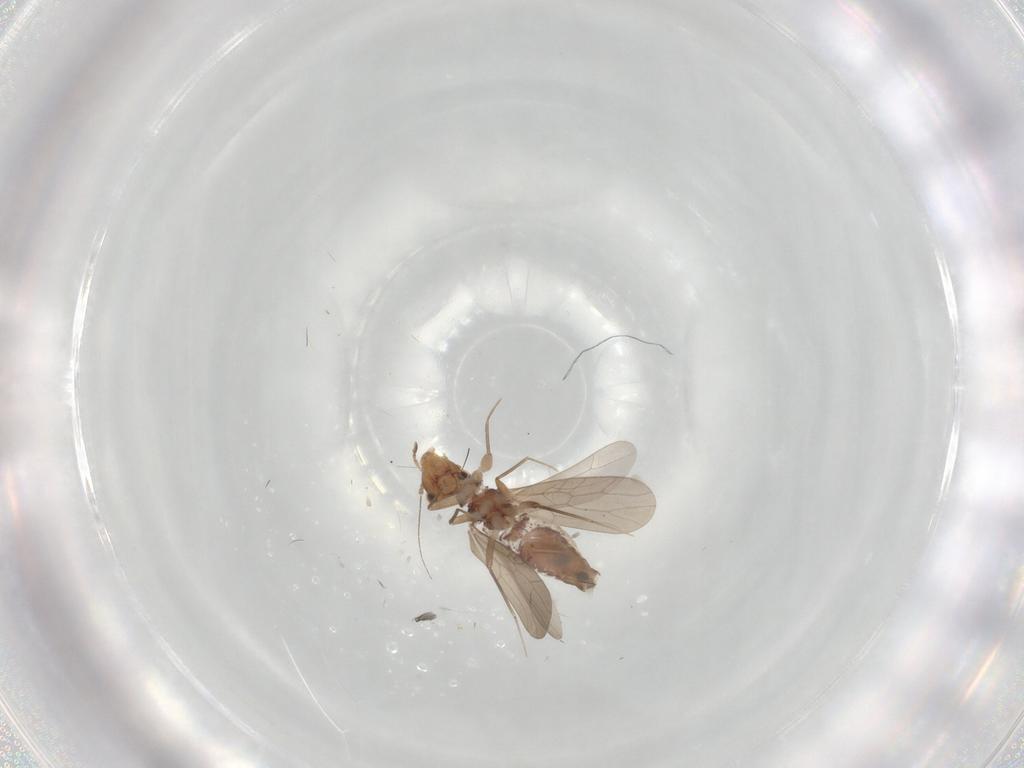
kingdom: Animalia
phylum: Arthropoda
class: Insecta
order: Psocodea
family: Lepidopsocidae
